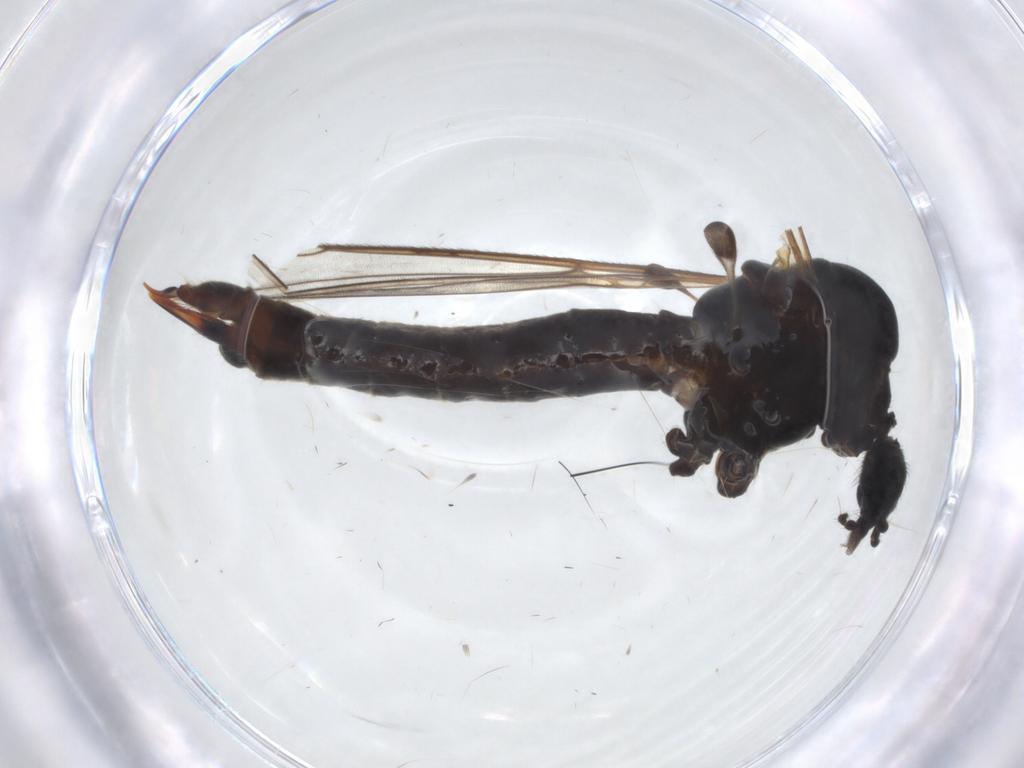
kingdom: Animalia
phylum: Arthropoda
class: Insecta
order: Diptera
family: Limoniidae
